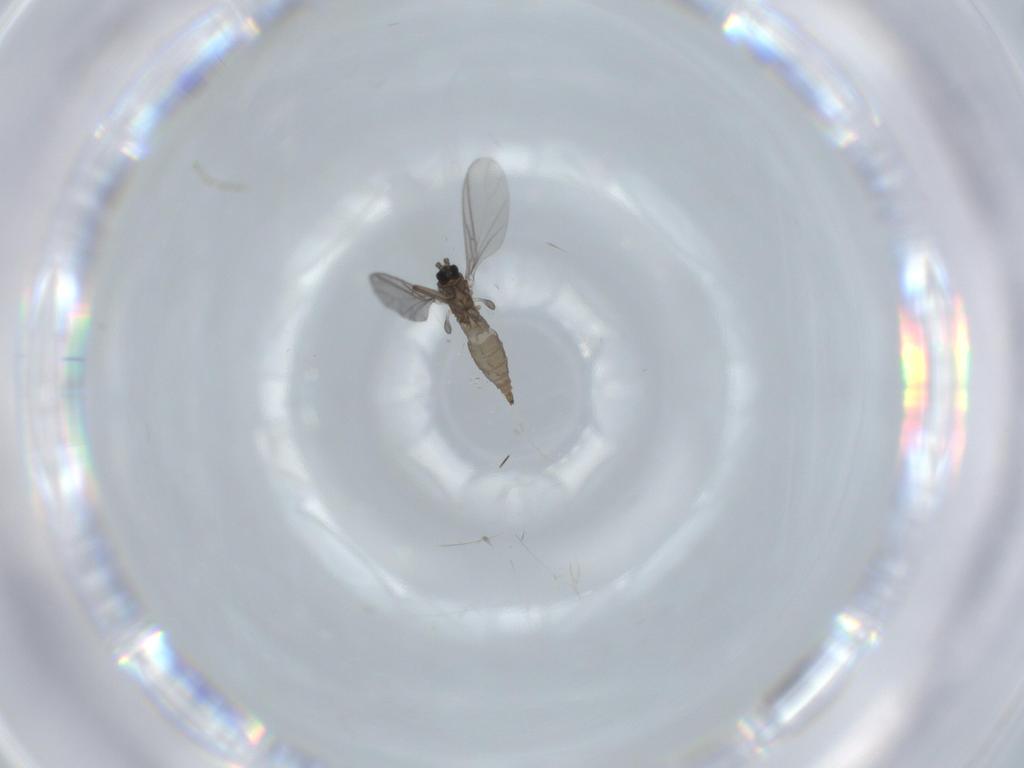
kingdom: Animalia
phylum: Arthropoda
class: Insecta
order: Diptera
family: Sciaridae
